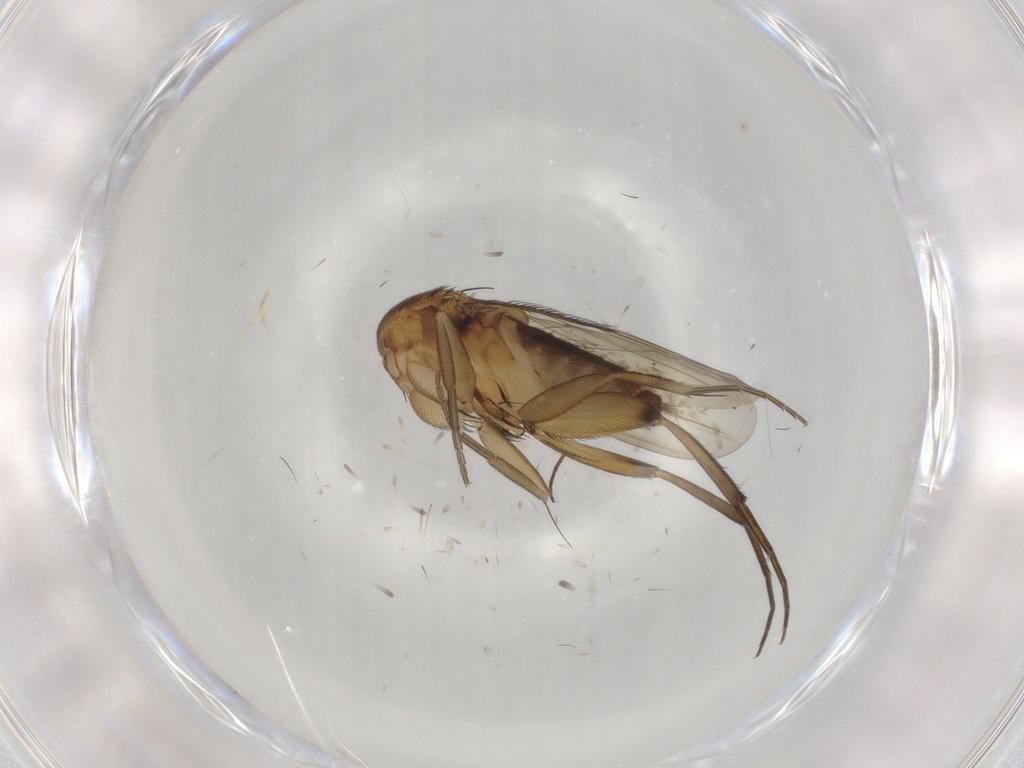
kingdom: Animalia
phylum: Arthropoda
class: Insecta
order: Diptera
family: Phoridae
